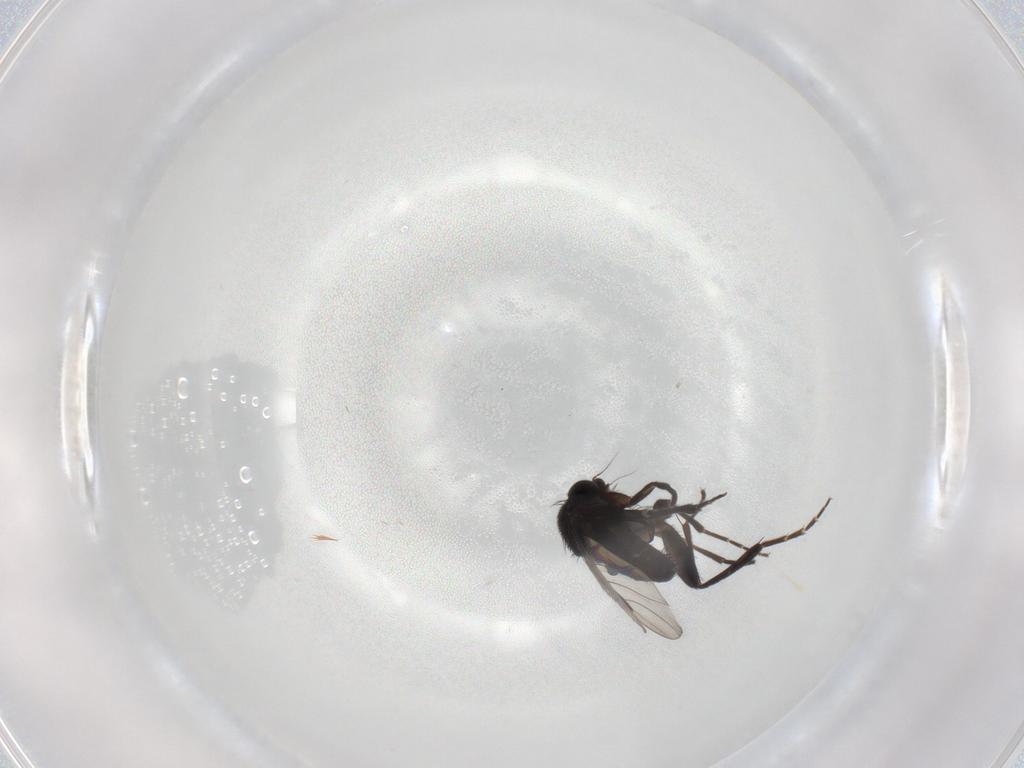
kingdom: Animalia
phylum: Arthropoda
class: Insecta
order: Diptera
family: Phoridae
